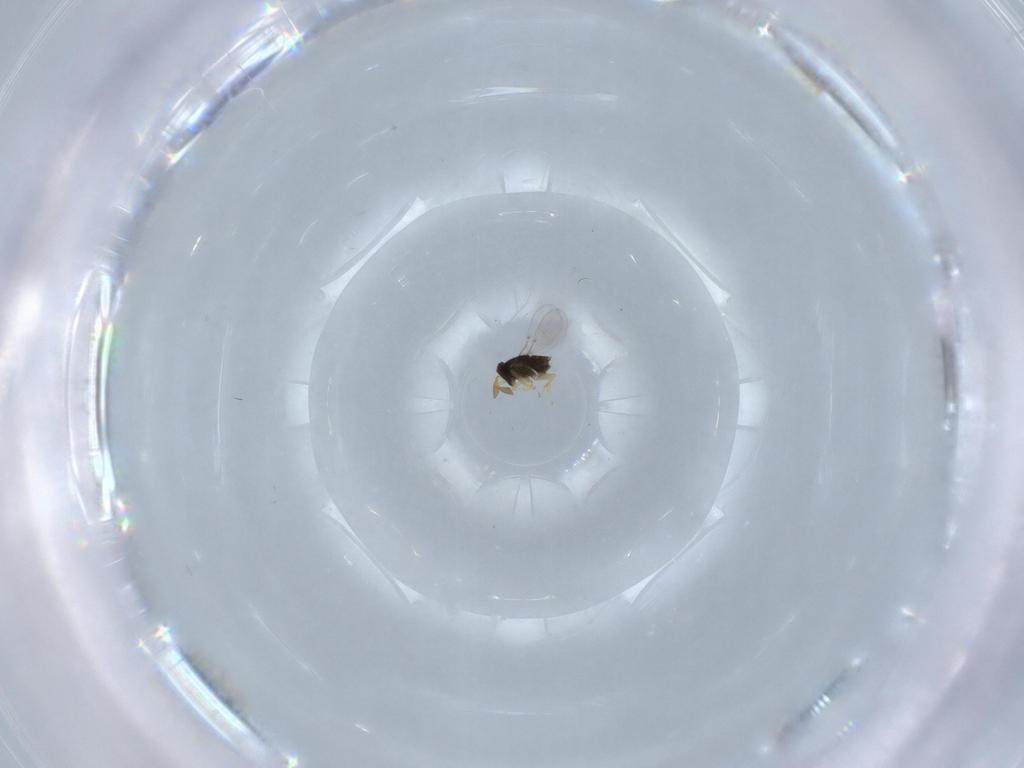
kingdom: Animalia
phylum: Arthropoda
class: Insecta
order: Hymenoptera
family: Encyrtidae
